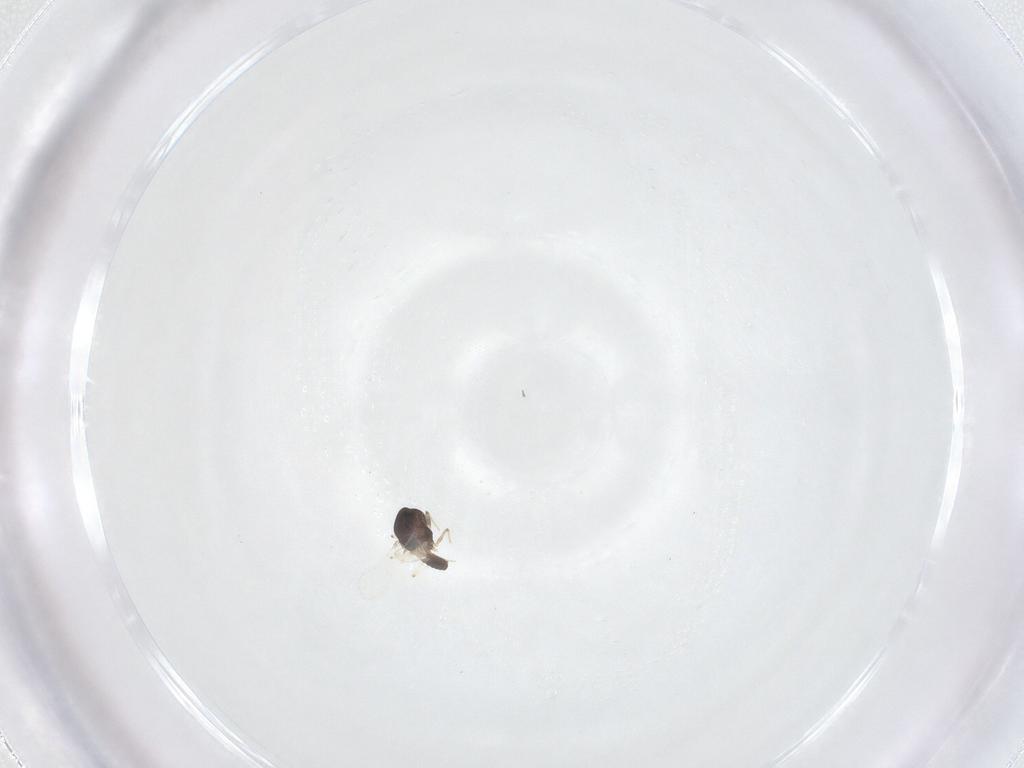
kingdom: Animalia
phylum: Arthropoda
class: Insecta
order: Diptera
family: Chironomidae
